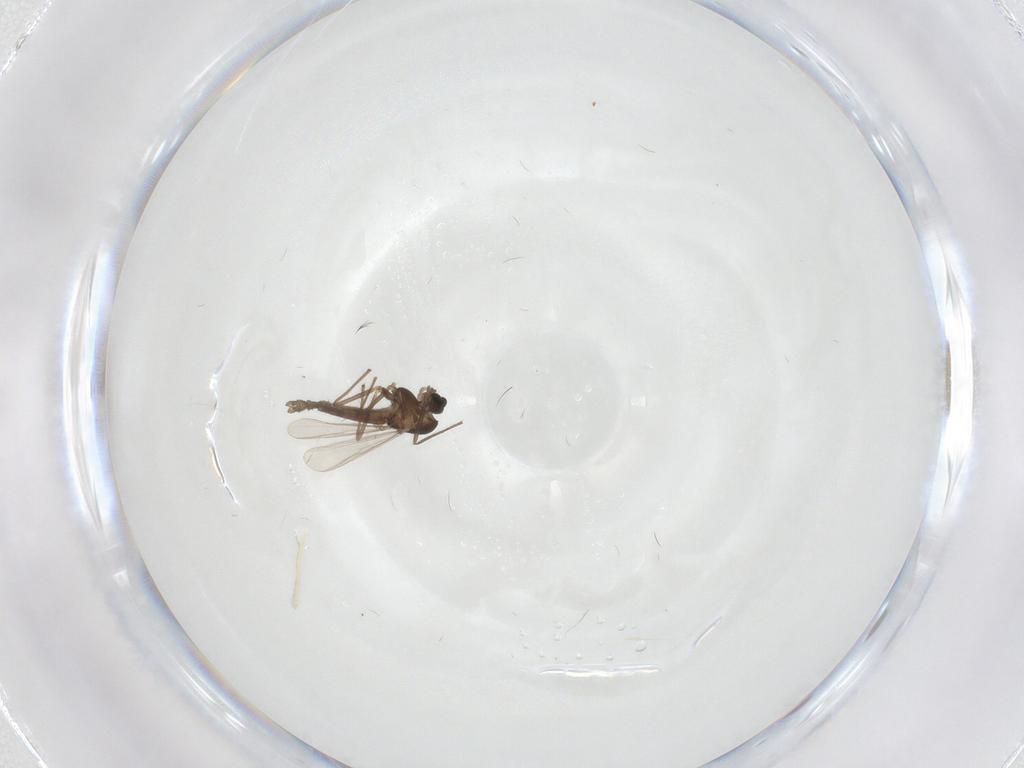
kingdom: Animalia
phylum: Arthropoda
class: Insecta
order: Diptera
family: Chironomidae
